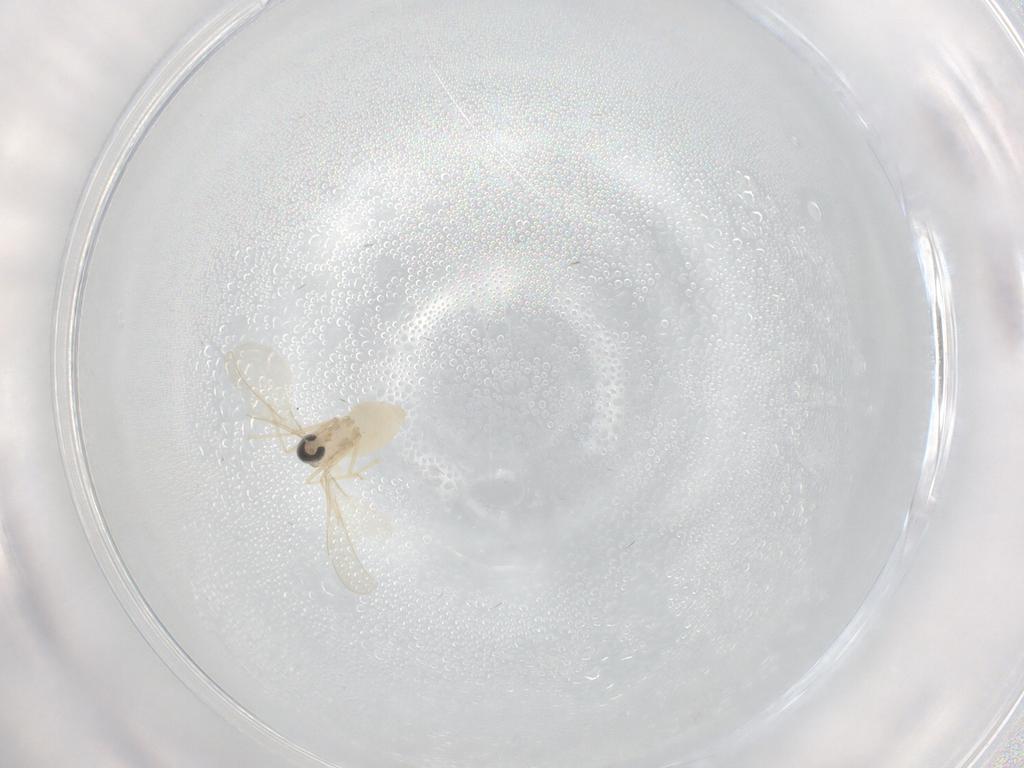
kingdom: Animalia
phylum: Arthropoda
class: Insecta
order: Diptera
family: Cecidomyiidae
